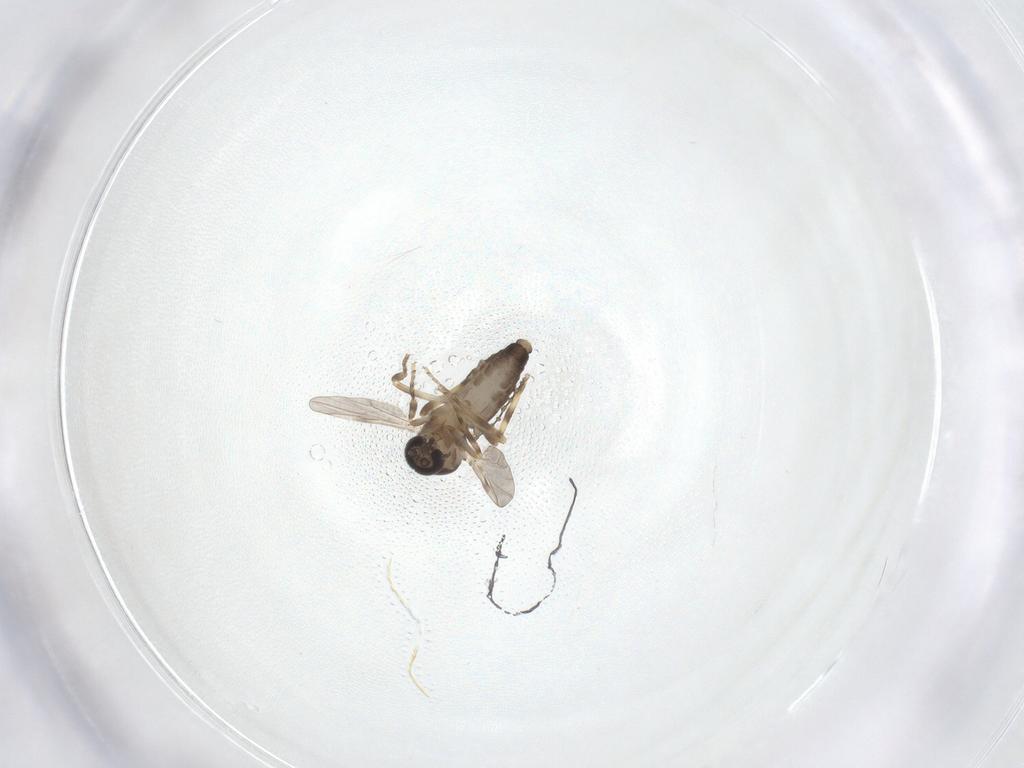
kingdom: Animalia
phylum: Arthropoda
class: Insecta
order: Diptera
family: Ceratopogonidae
